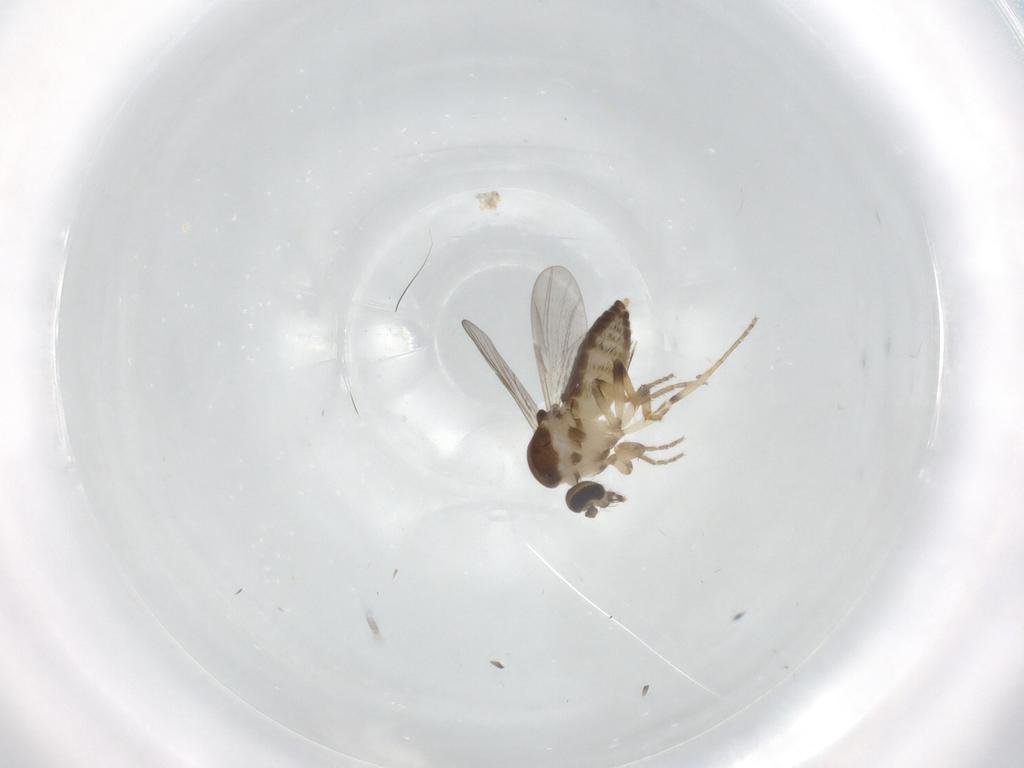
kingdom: Animalia
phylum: Arthropoda
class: Insecta
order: Diptera
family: Ceratopogonidae
